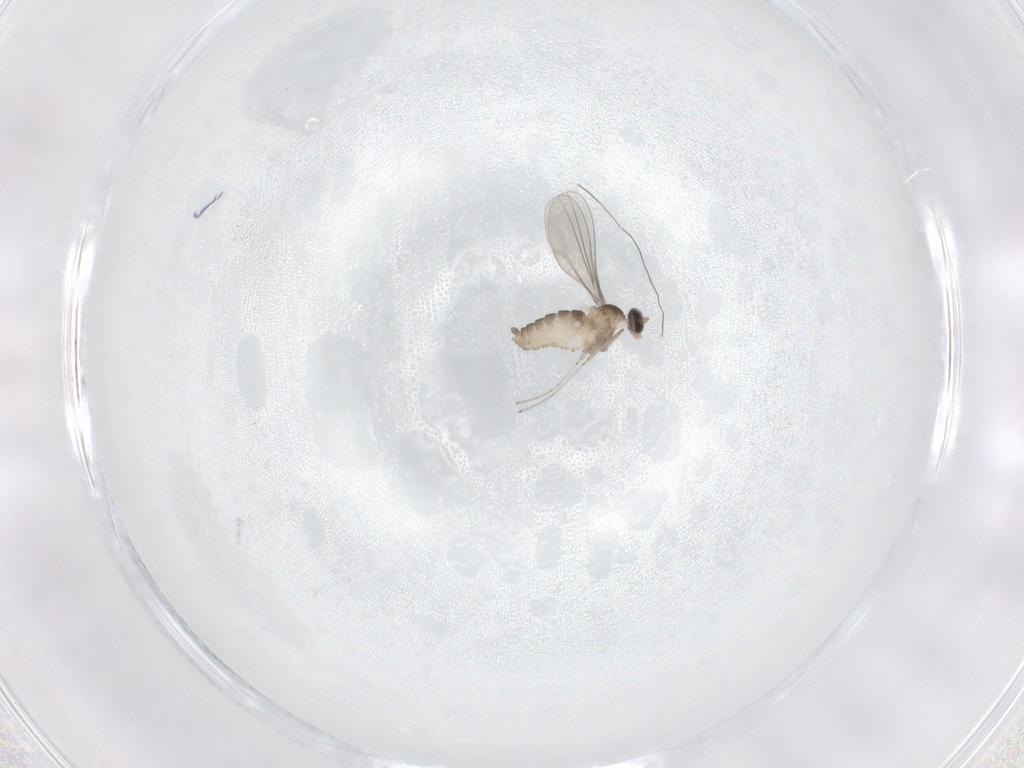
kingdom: Animalia
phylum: Arthropoda
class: Insecta
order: Diptera
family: Cecidomyiidae
